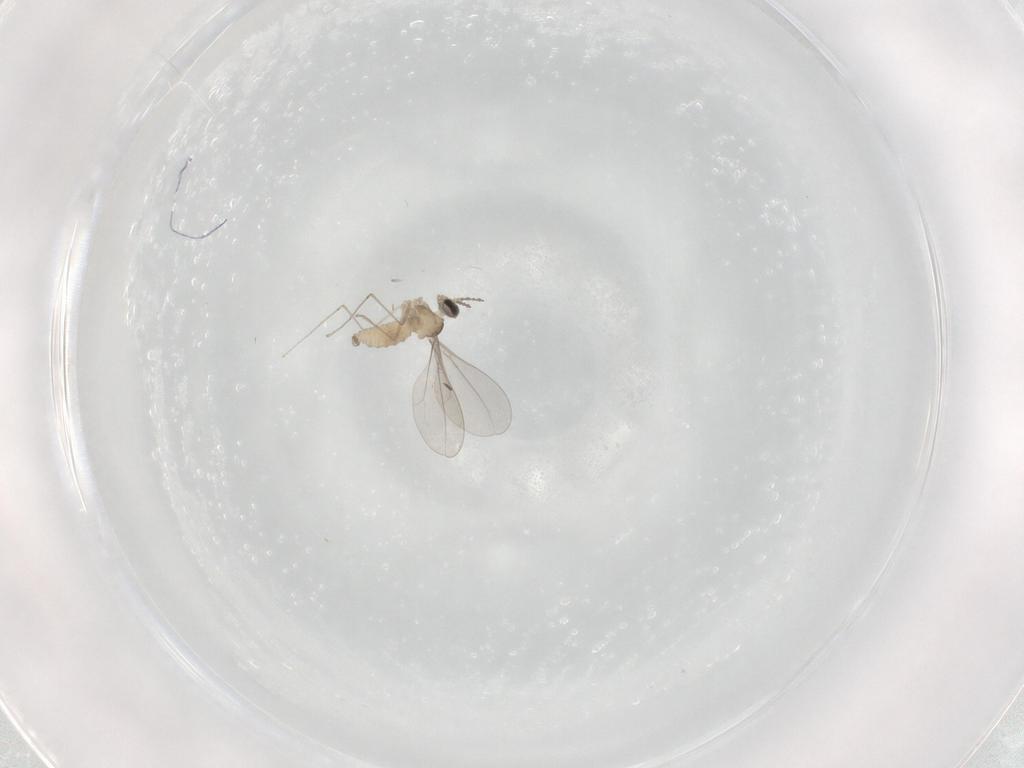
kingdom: Animalia
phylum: Arthropoda
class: Insecta
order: Diptera
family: Cecidomyiidae
